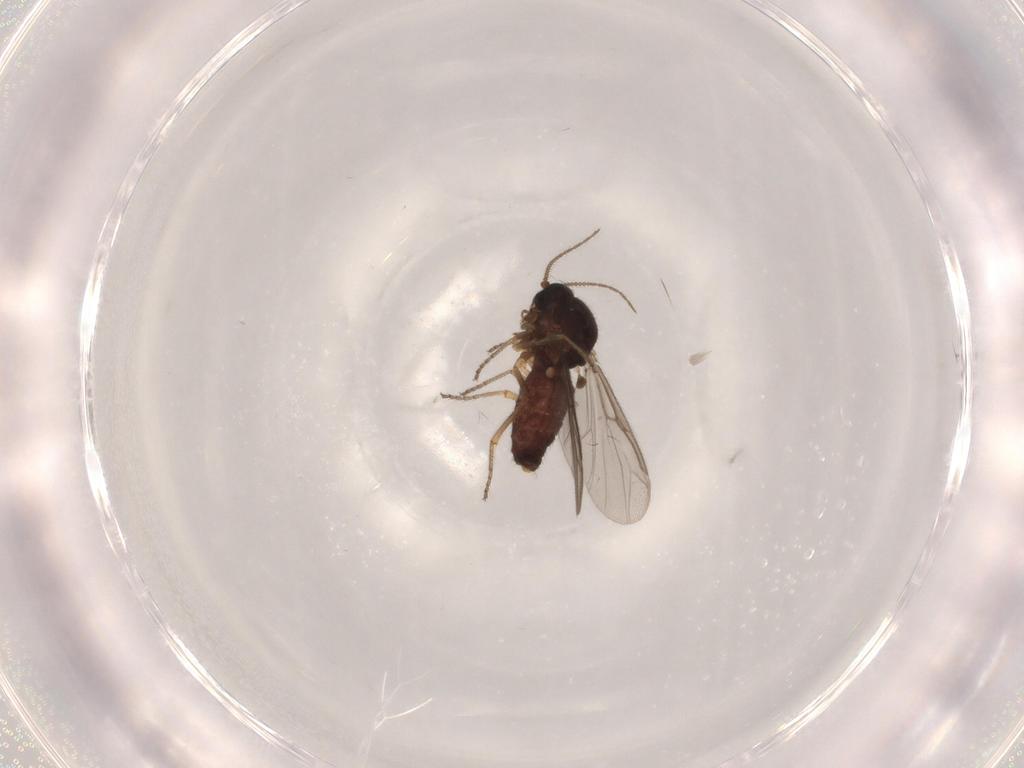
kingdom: Animalia
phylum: Arthropoda
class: Insecta
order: Diptera
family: Ceratopogonidae
